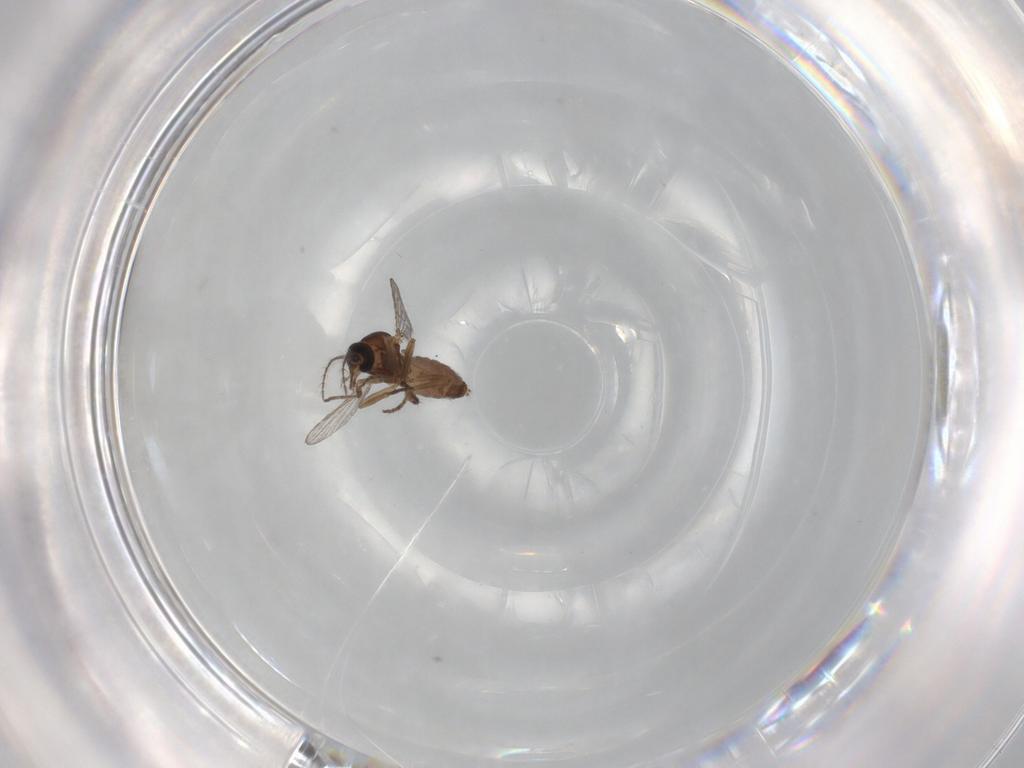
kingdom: Animalia
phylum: Arthropoda
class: Insecta
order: Diptera
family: Ceratopogonidae
